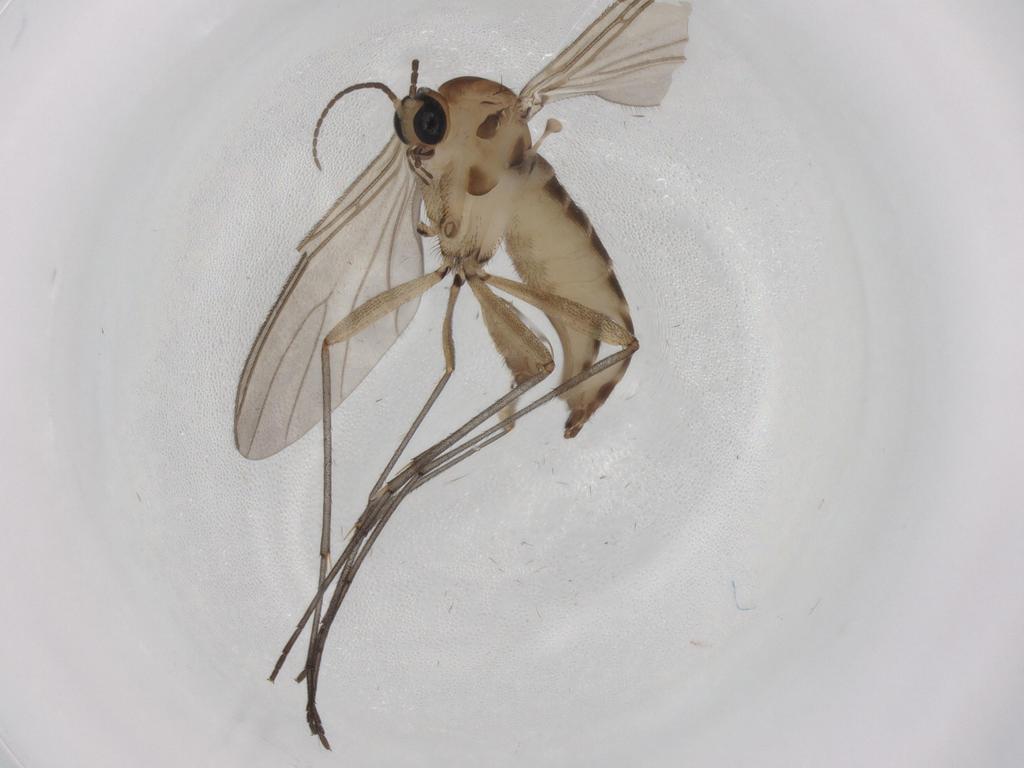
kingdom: Animalia
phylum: Arthropoda
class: Insecta
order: Diptera
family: Sciaridae
